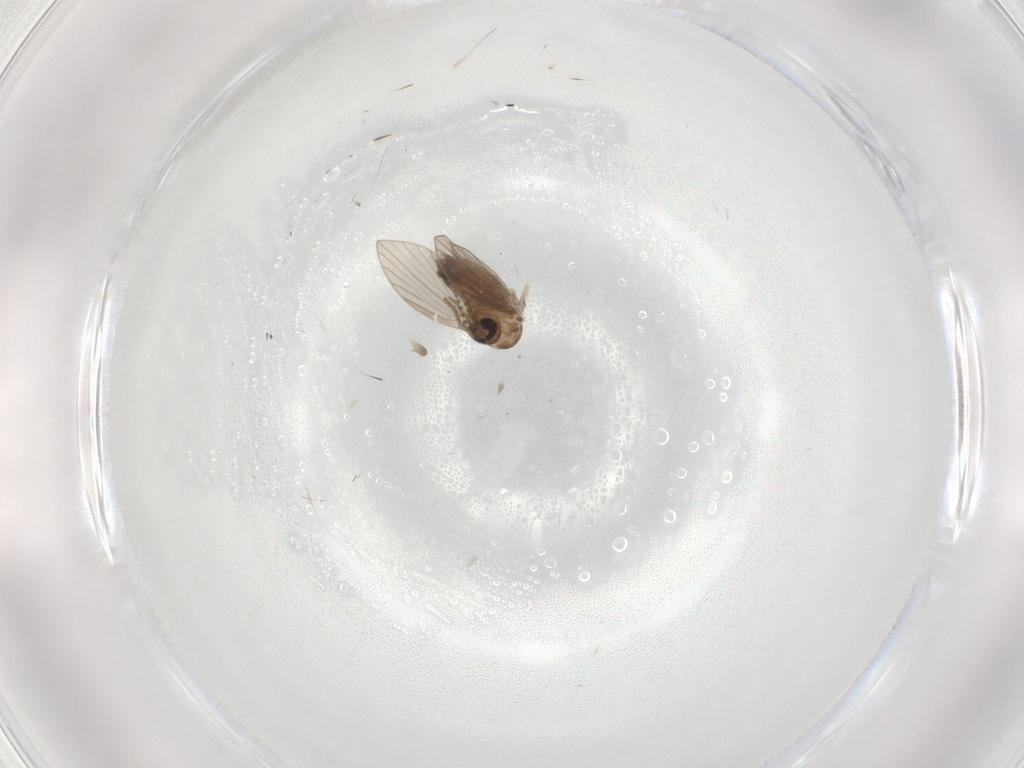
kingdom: Animalia
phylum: Arthropoda
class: Insecta
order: Diptera
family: Psychodidae
